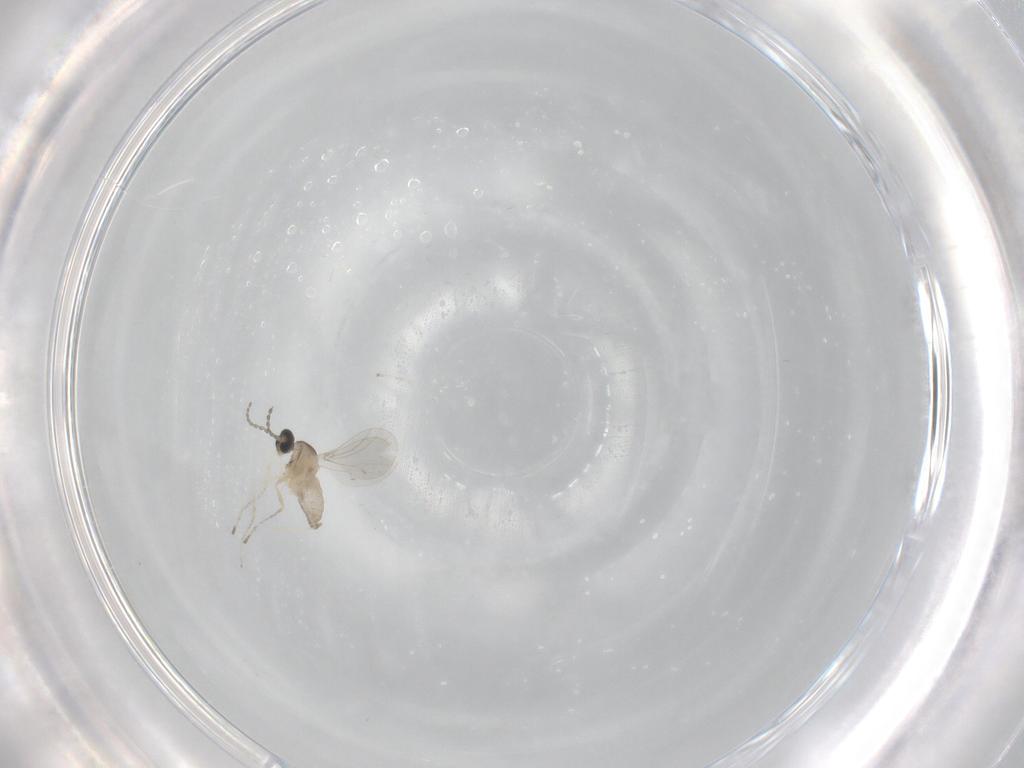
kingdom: Animalia
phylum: Arthropoda
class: Insecta
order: Diptera
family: Cecidomyiidae
